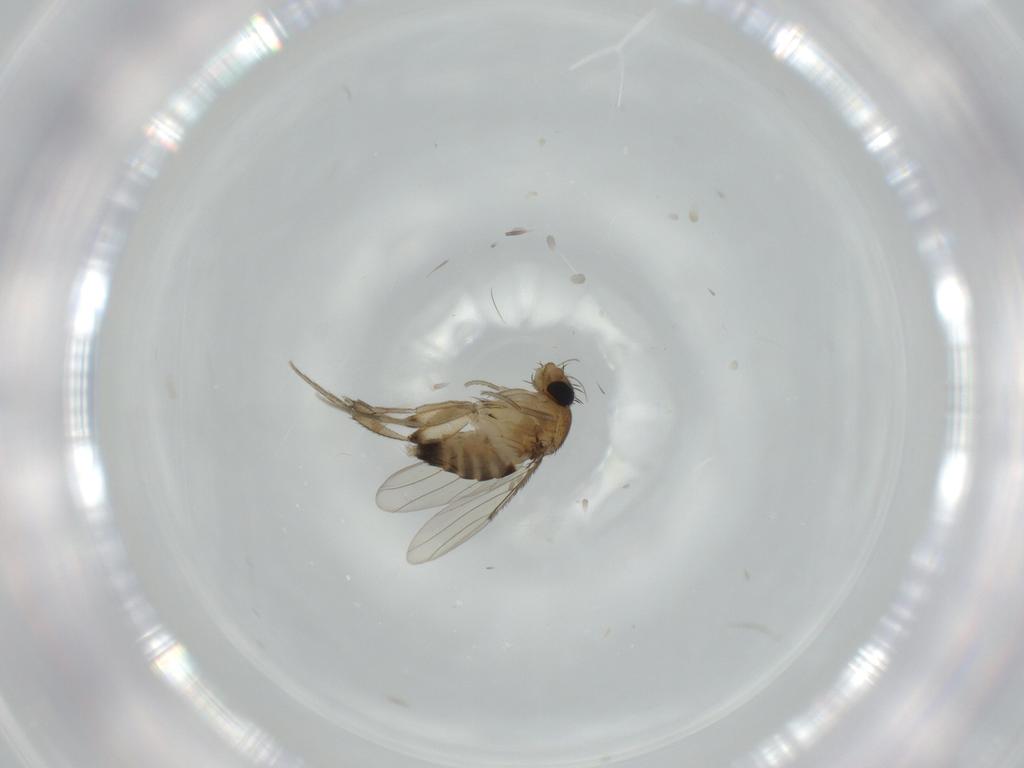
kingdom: Animalia
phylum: Arthropoda
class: Insecta
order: Diptera
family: Phoridae
